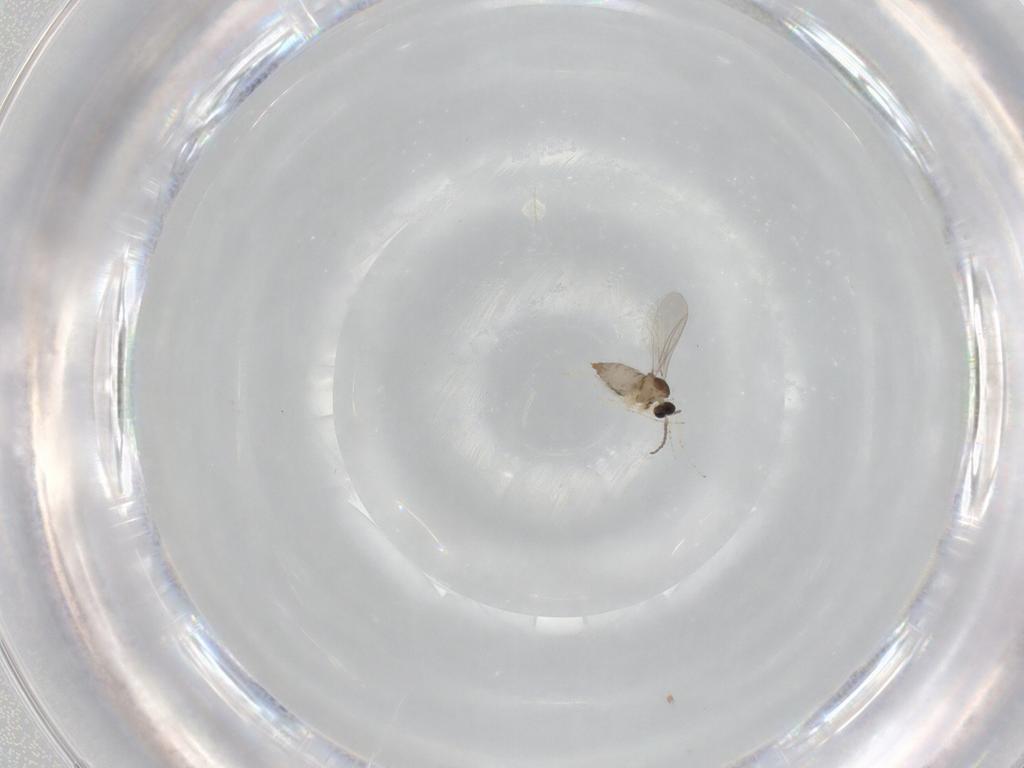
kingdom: Animalia
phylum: Arthropoda
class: Insecta
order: Diptera
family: Cecidomyiidae
